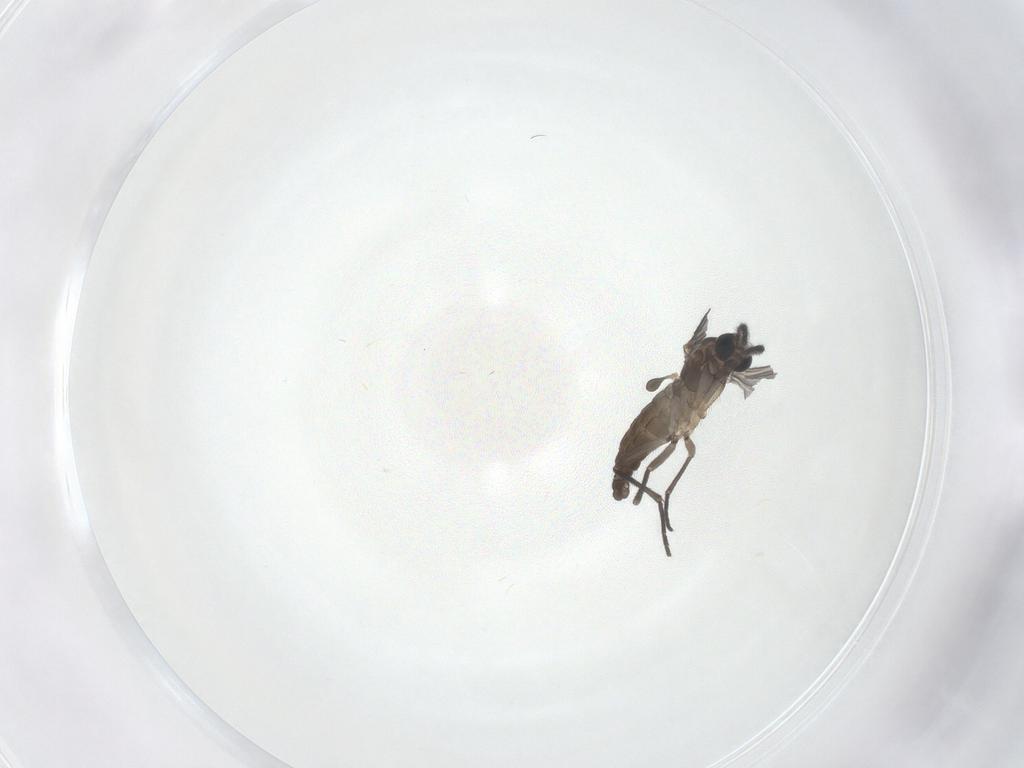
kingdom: Animalia
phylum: Arthropoda
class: Insecta
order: Diptera
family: Sciaridae
